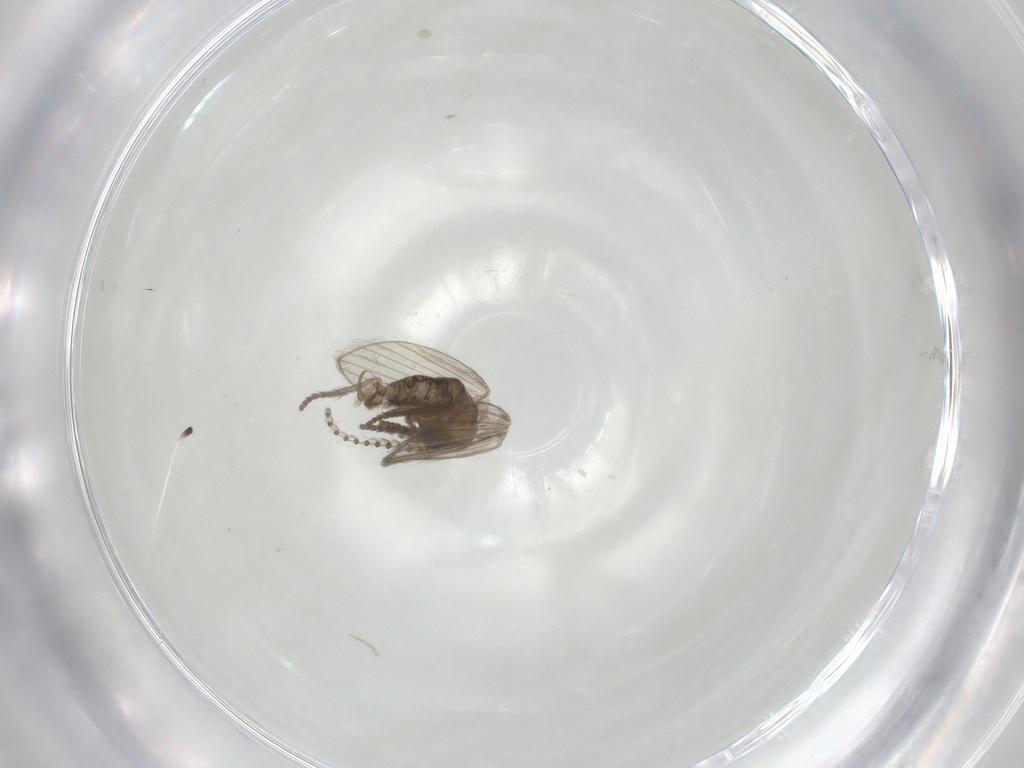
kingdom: Animalia
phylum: Arthropoda
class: Insecta
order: Diptera
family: Psychodidae
